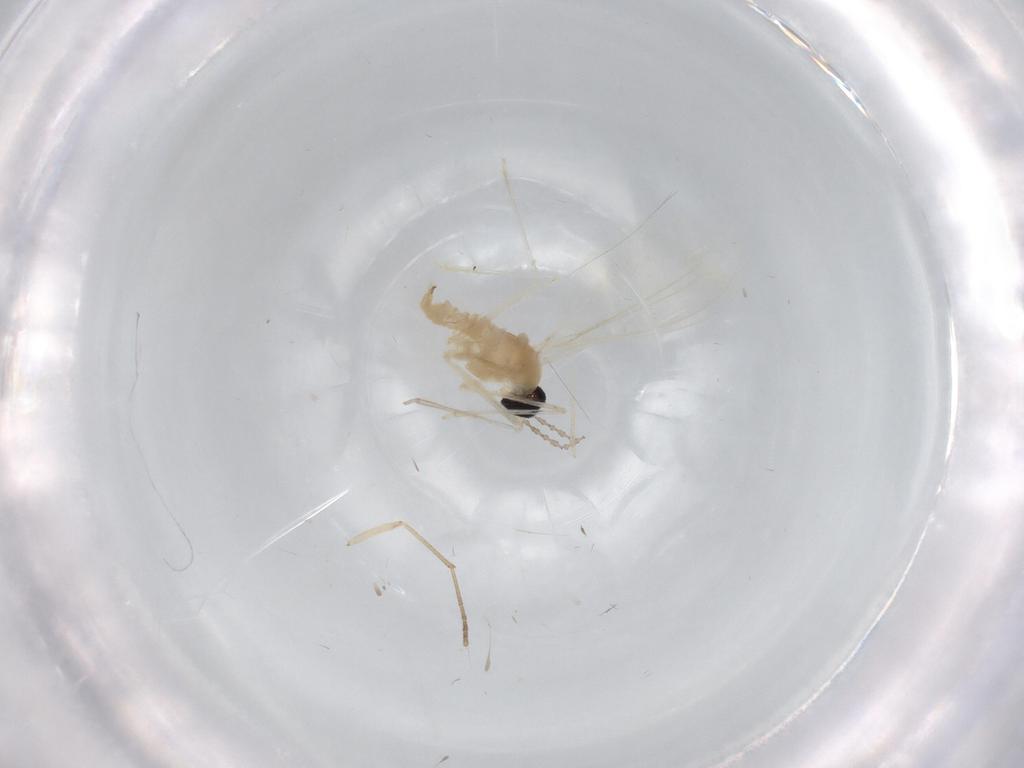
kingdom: Animalia
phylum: Arthropoda
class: Insecta
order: Diptera
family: Cecidomyiidae
